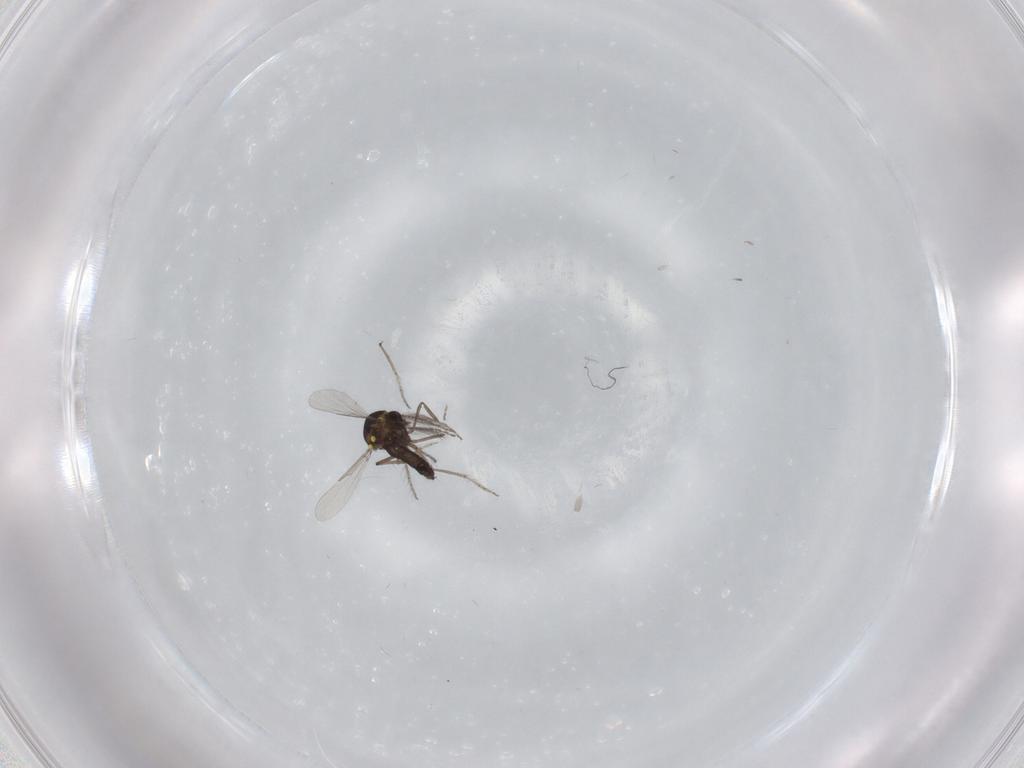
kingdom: Animalia
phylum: Arthropoda
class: Insecta
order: Diptera
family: Ceratopogonidae
